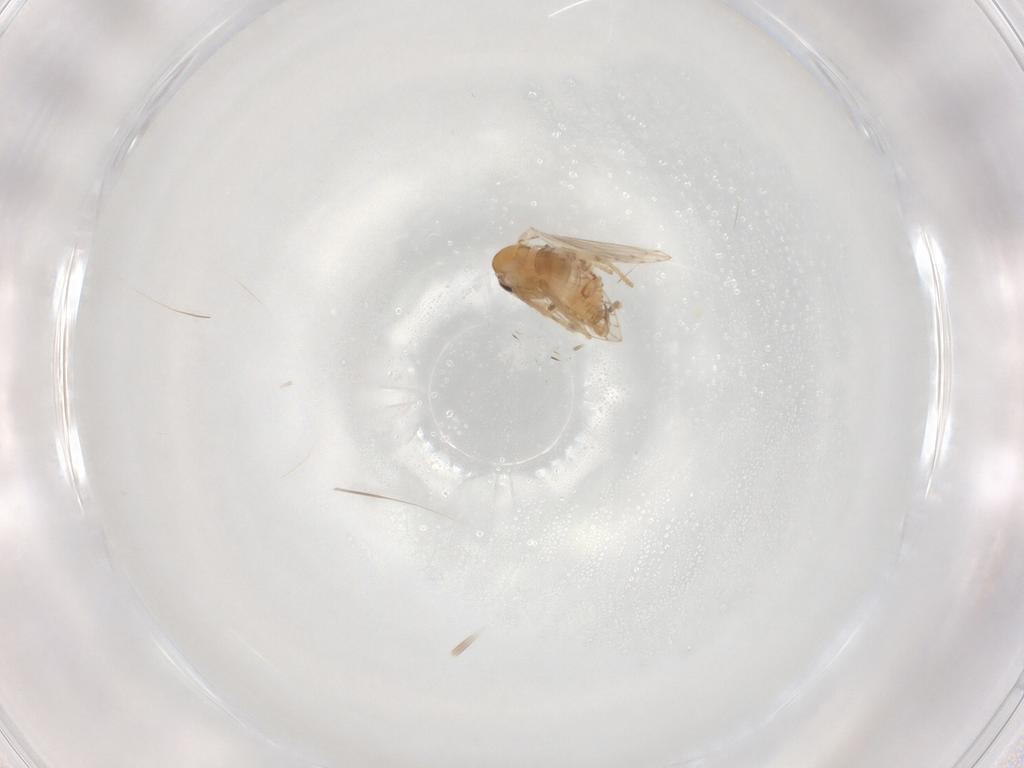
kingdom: Animalia
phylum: Arthropoda
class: Insecta
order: Diptera
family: Psychodidae
